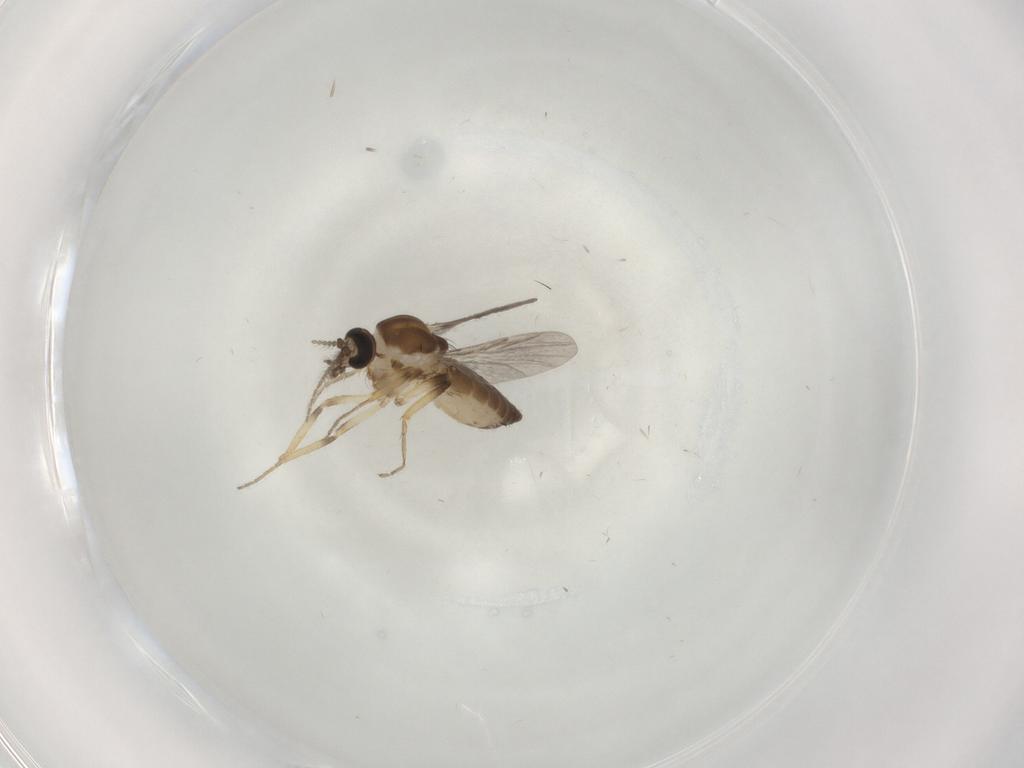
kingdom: Animalia
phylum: Arthropoda
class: Insecta
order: Diptera
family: Ceratopogonidae
